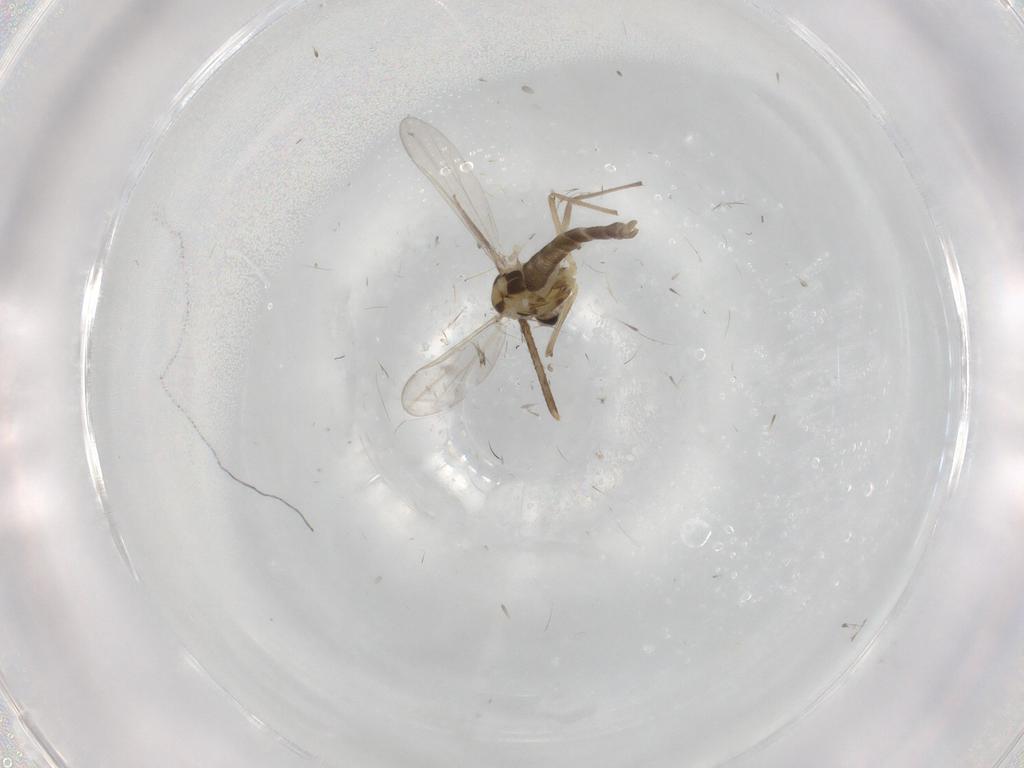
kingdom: Animalia
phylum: Arthropoda
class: Insecta
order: Diptera
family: Chironomidae
